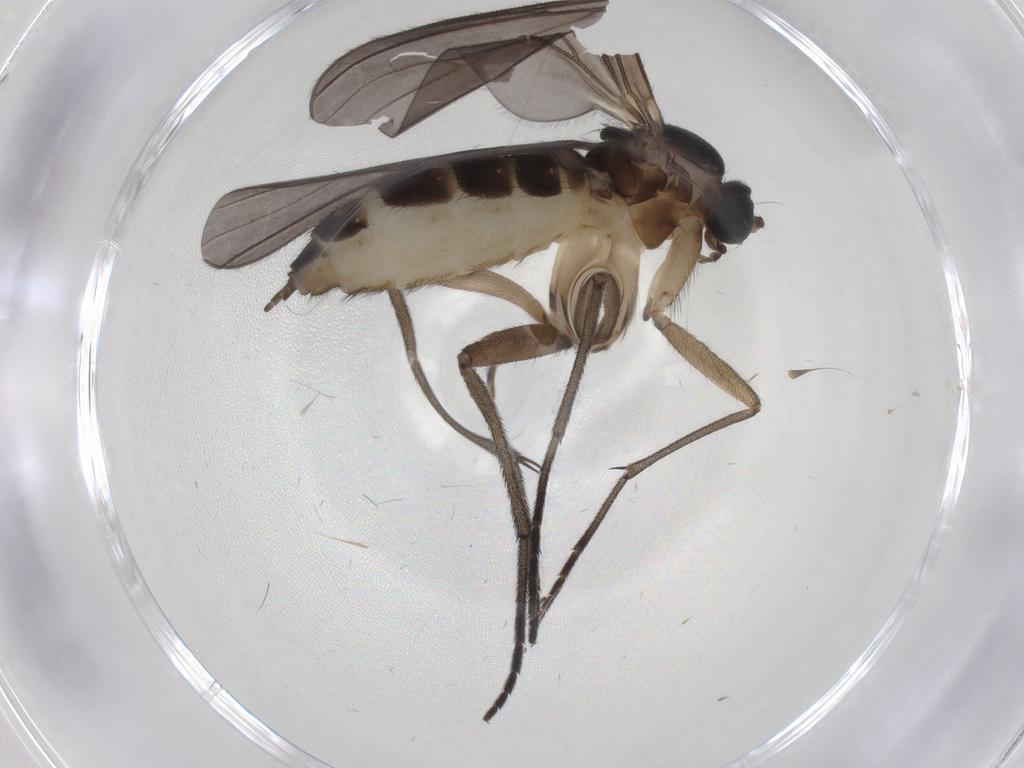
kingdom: Animalia
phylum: Arthropoda
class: Insecta
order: Diptera
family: Sciaridae
